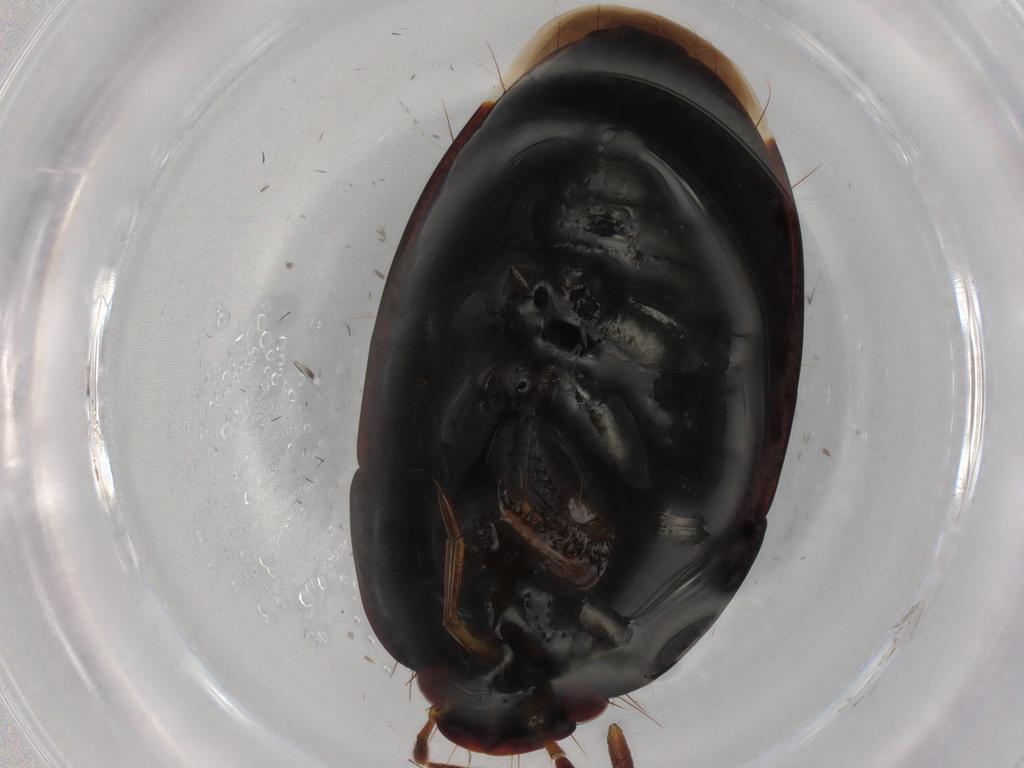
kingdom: Animalia
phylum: Arthropoda
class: Insecta
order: Hemiptera
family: Cydnidae
